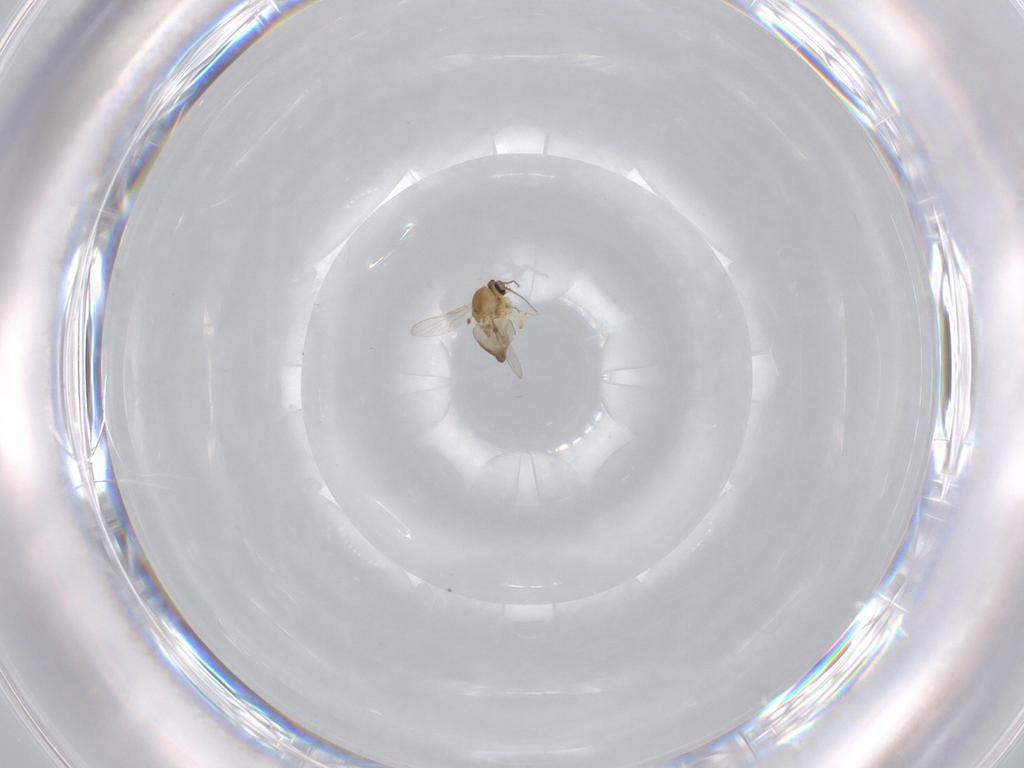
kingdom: Animalia
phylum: Arthropoda
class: Insecta
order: Diptera
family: Ceratopogonidae
